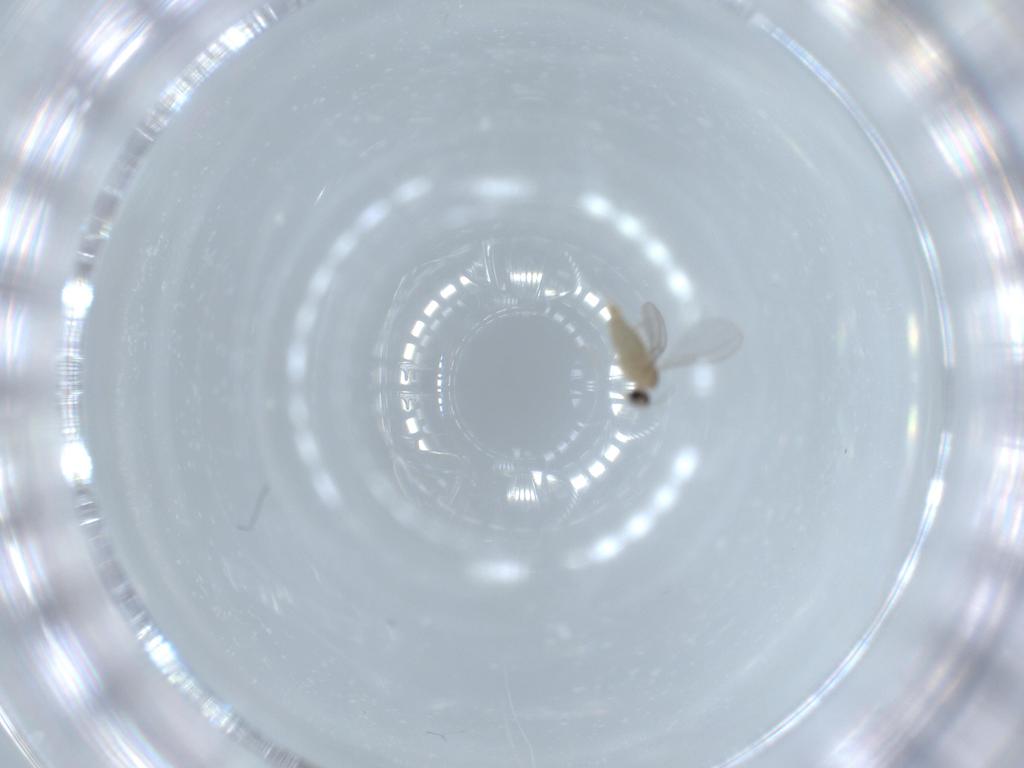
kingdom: Animalia
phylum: Arthropoda
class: Insecta
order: Diptera
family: Cecidomyiidae
